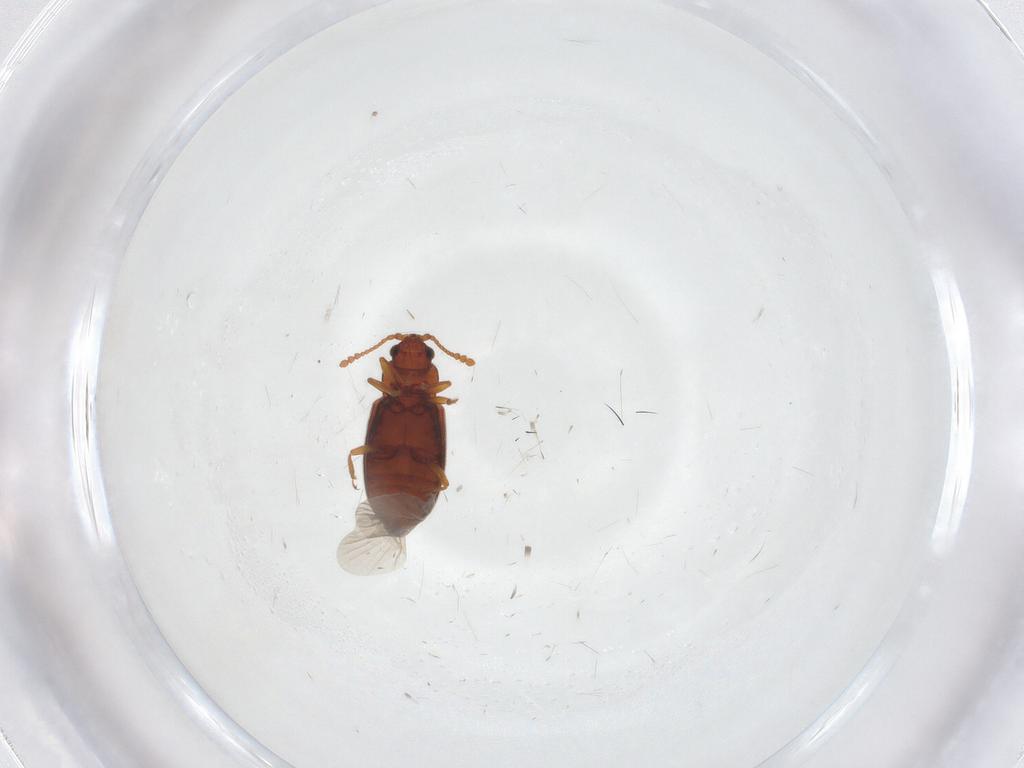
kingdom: Animalia
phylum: Arthropoda
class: Insecta
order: Coleoptera
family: Cryptophagidae
